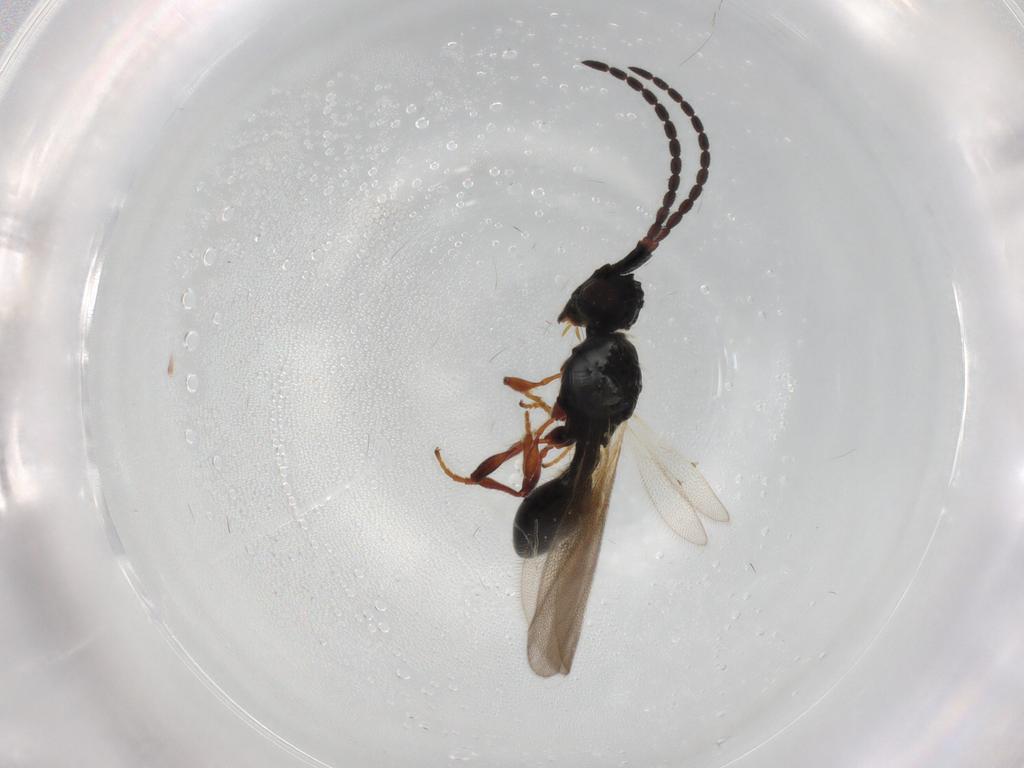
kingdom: Animalia
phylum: Arthropoda
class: Insecta
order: Hymenoptera
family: Diapriidae
